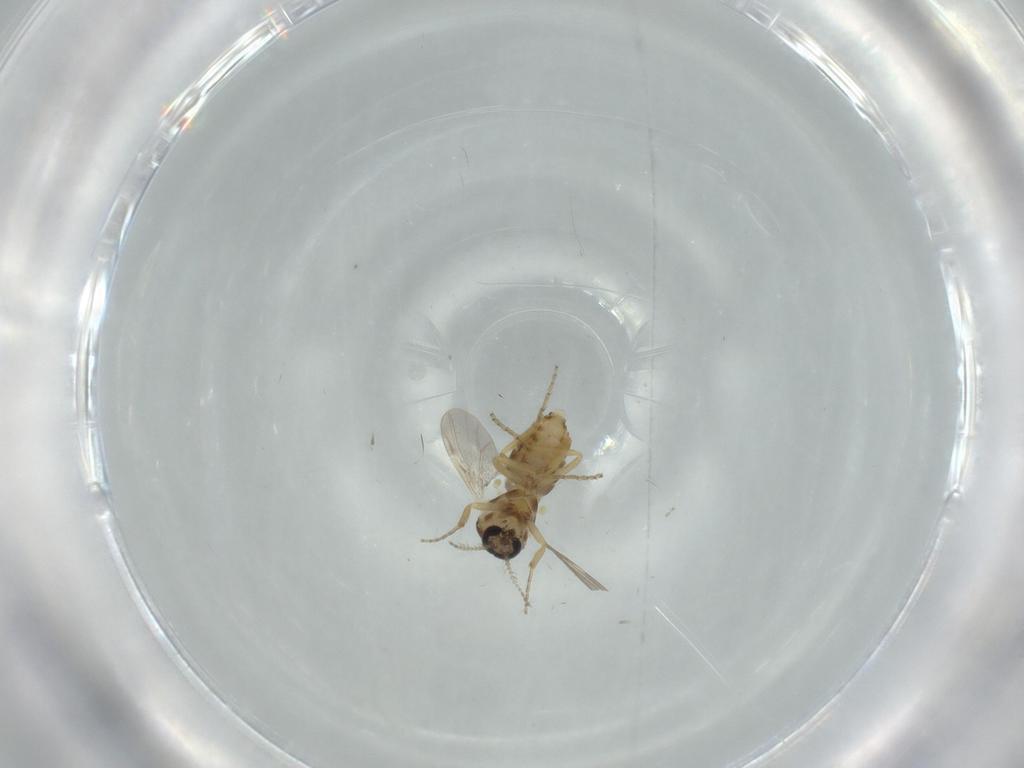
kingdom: Animalia
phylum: Arthropoda
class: Insecta
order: Diptera
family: Ceratopogonidae
